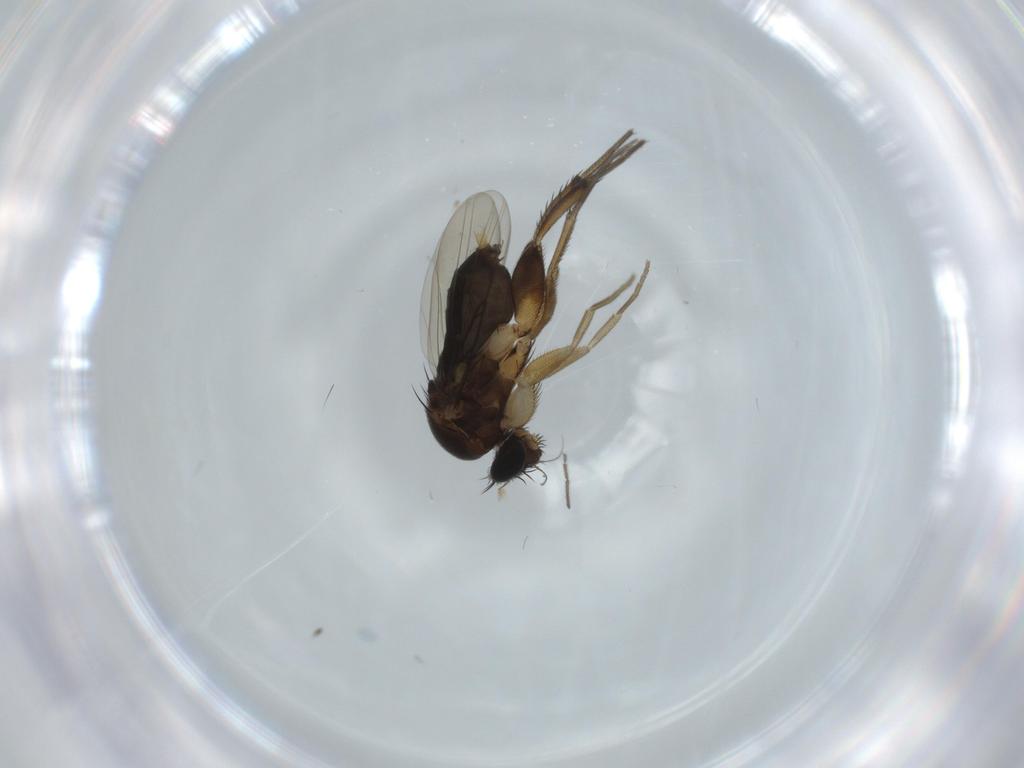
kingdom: Animalia
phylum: Arthropoda
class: Insecta
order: Diptera
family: Phoridae
